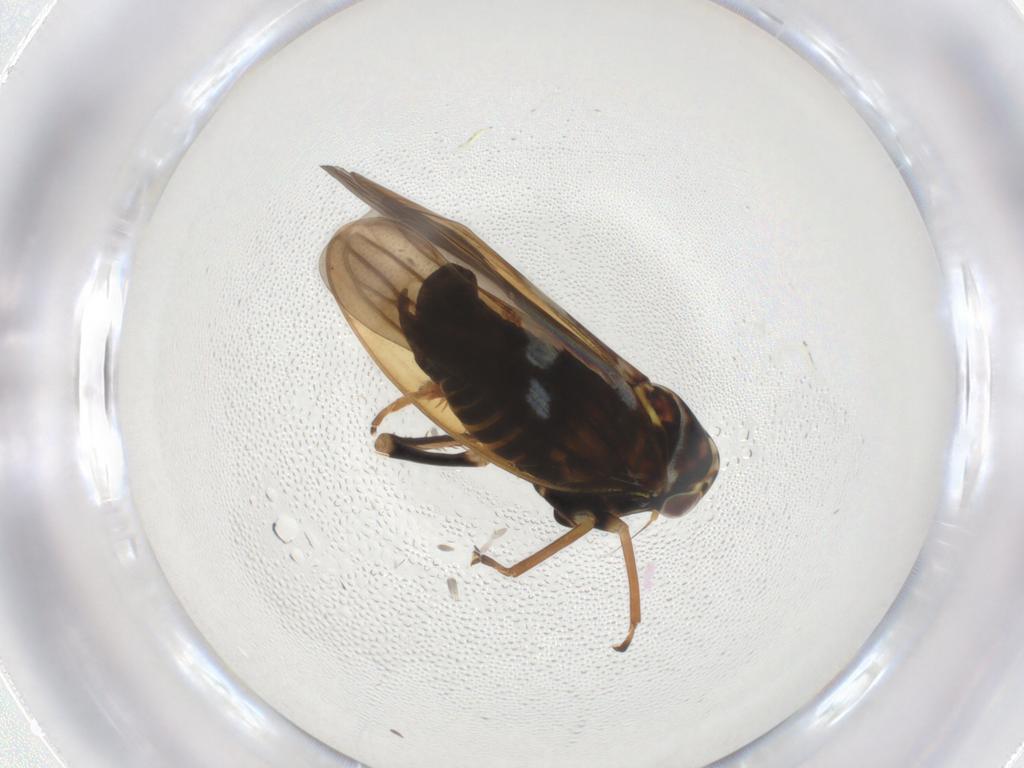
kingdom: Animalia
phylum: Arthropoda
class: Insecta
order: Hemiptera
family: Cicadellidae
